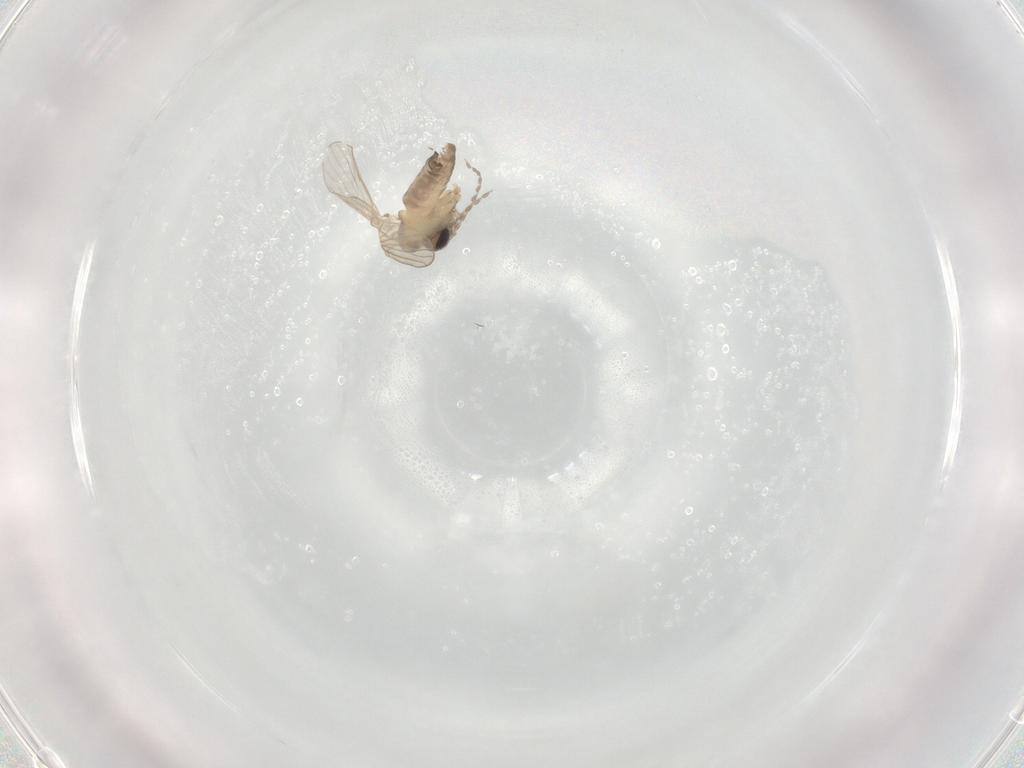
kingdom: Animalia
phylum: Arthropoda
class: Insecta
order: Diptera
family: Psychodidae
